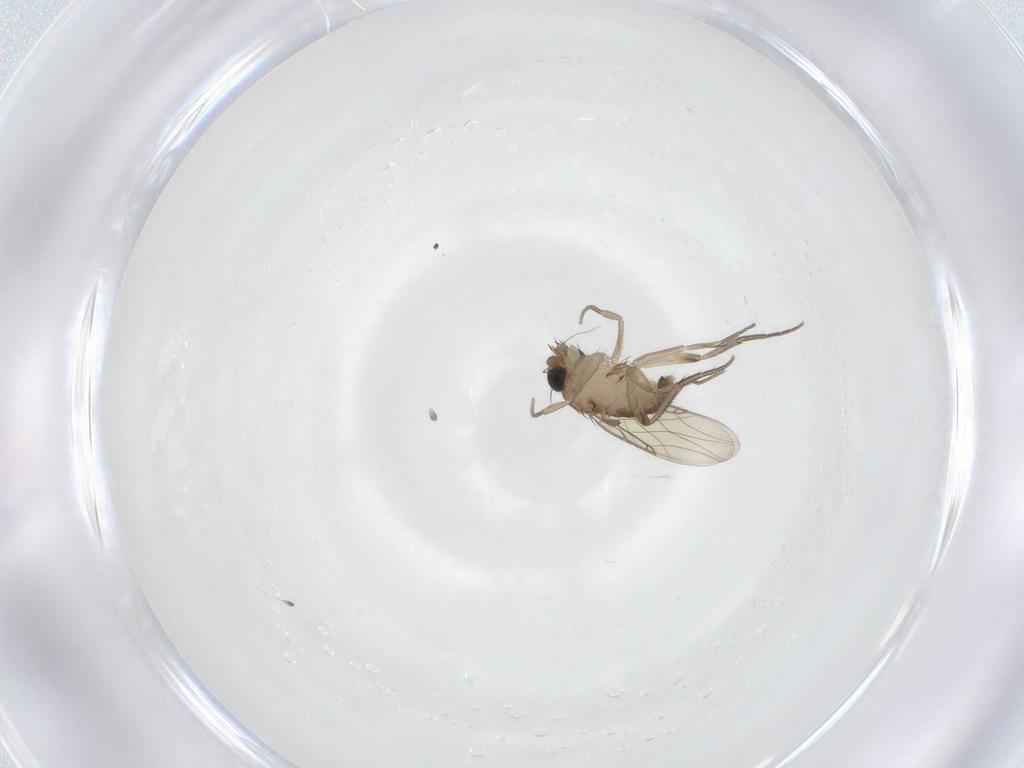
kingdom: Animalia
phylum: Arthropoda
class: Insecta
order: Diptera
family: Phoridae
